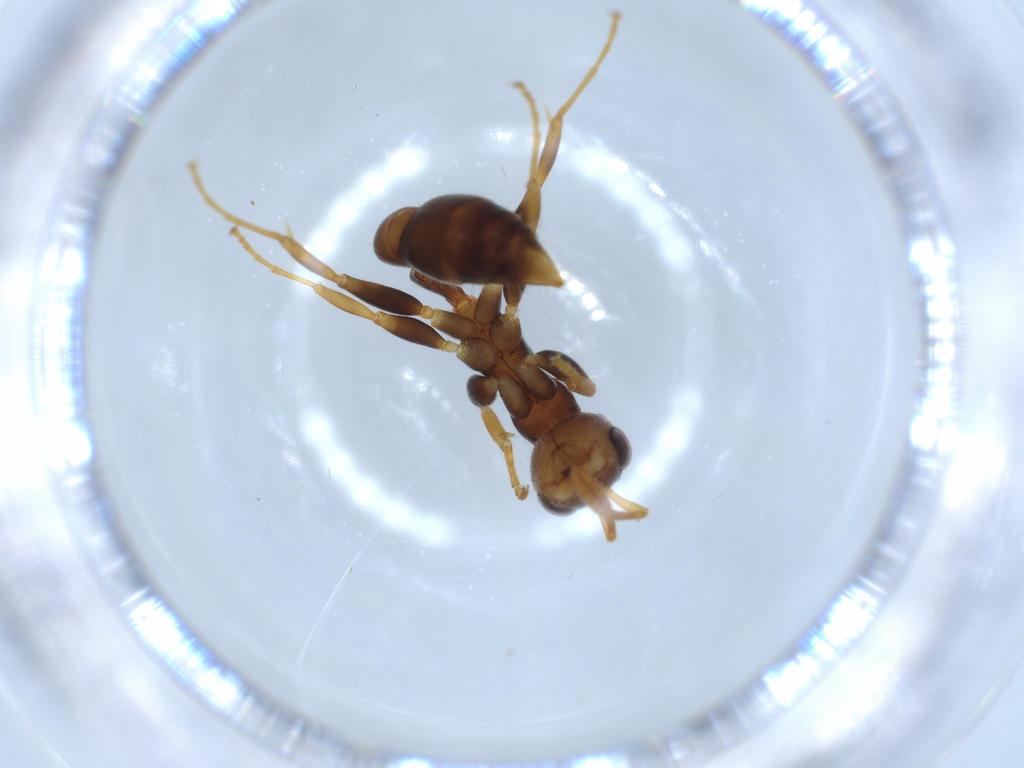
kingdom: Animalia
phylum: Arthropoda
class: Insecta
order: Hymenoptera
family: Formicidae
